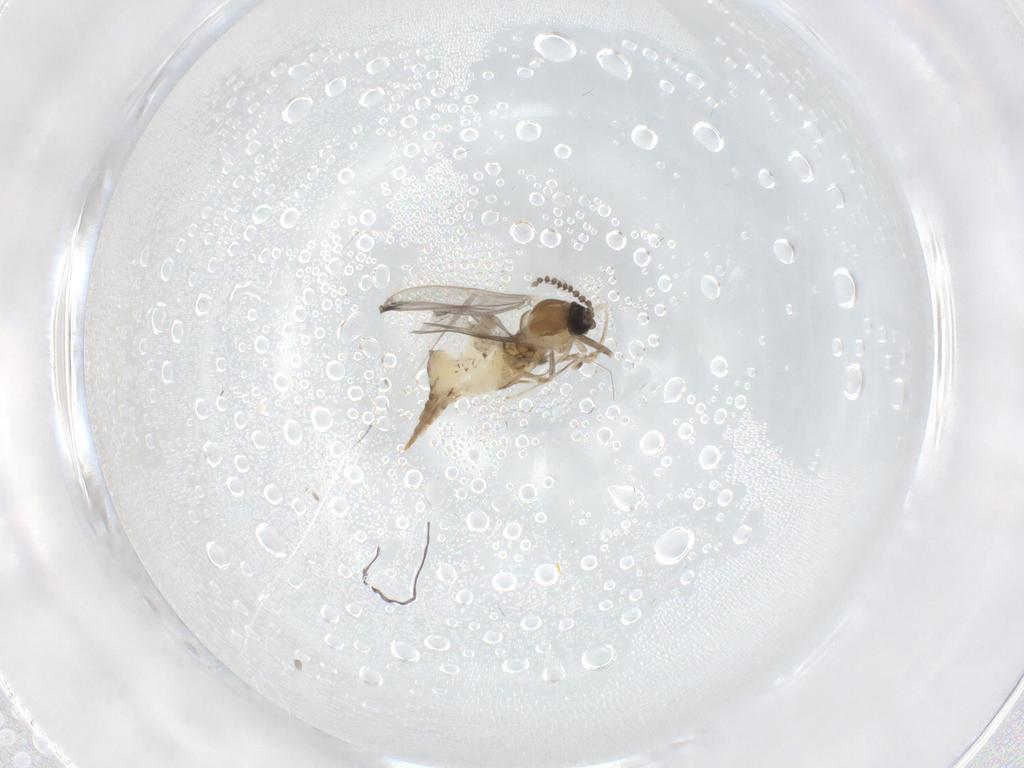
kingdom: Animalia
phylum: Arthropoda
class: Insecta
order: Diptera
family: Cecidomyiidae
